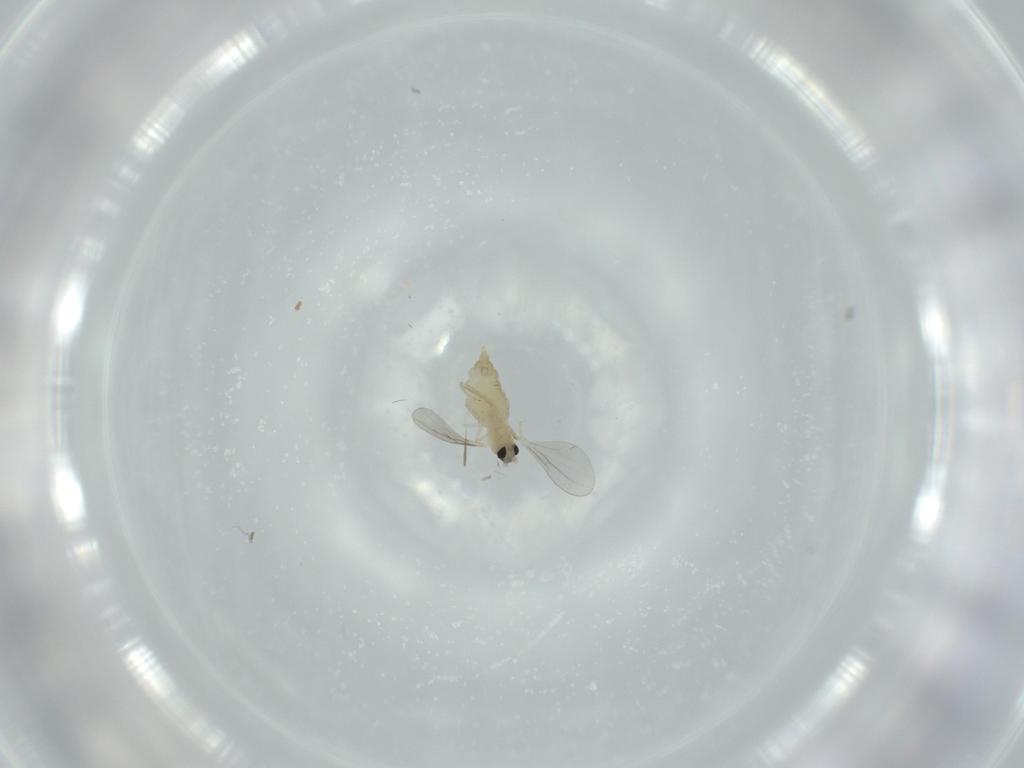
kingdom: Animalia
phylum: Arthropoda
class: Insecta
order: Diptera
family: Cecidomyiidae
